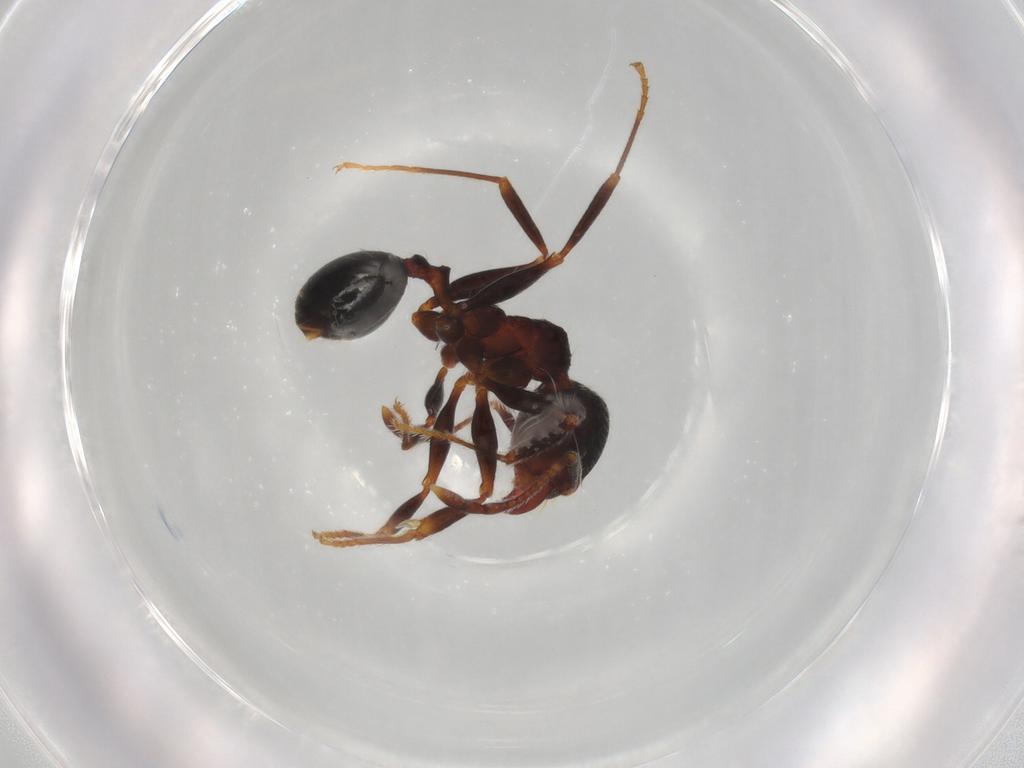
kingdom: Animalia
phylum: Arthropoda
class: Insecta
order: Hymenoptera
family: Formicidae
